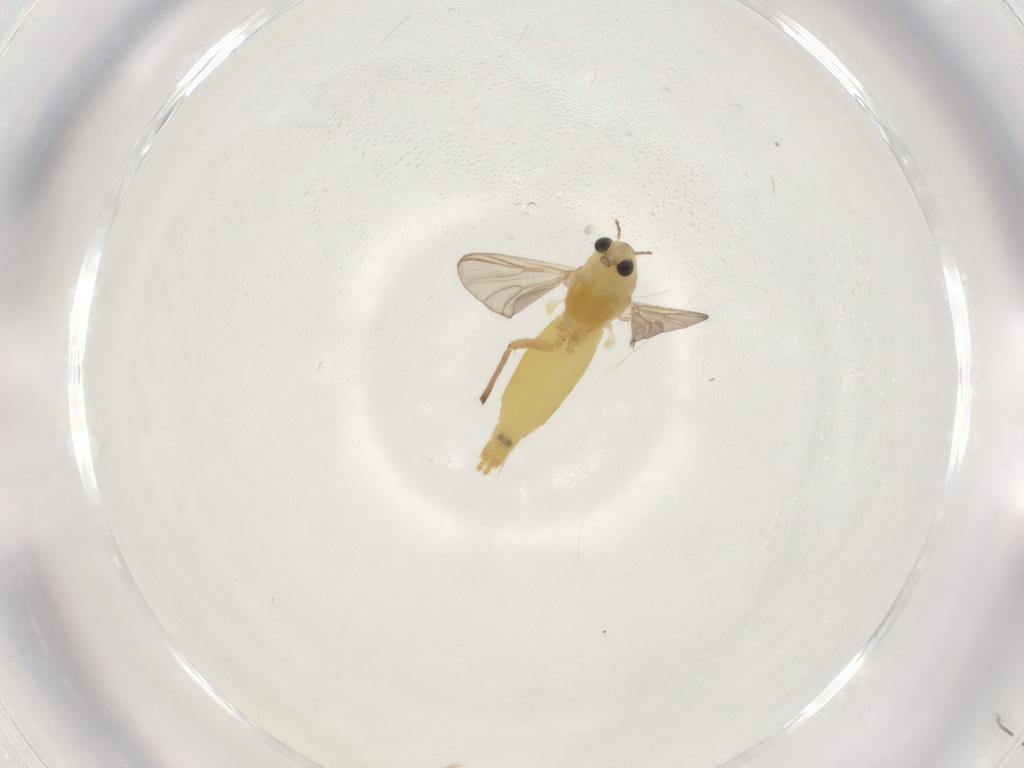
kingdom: Animalia
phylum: Arthropoda
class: Insecta
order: Diptera
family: Chironomidae
